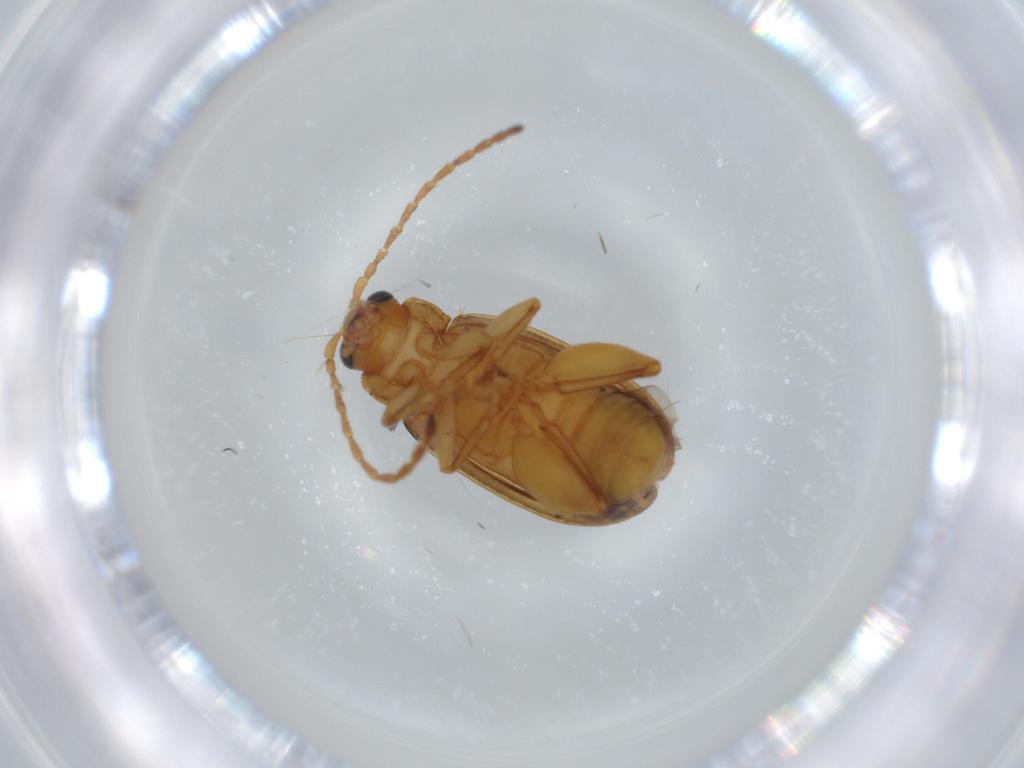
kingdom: Animalia
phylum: Arthropoda
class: Insecta
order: Coleoptera
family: Chrysomelidae
